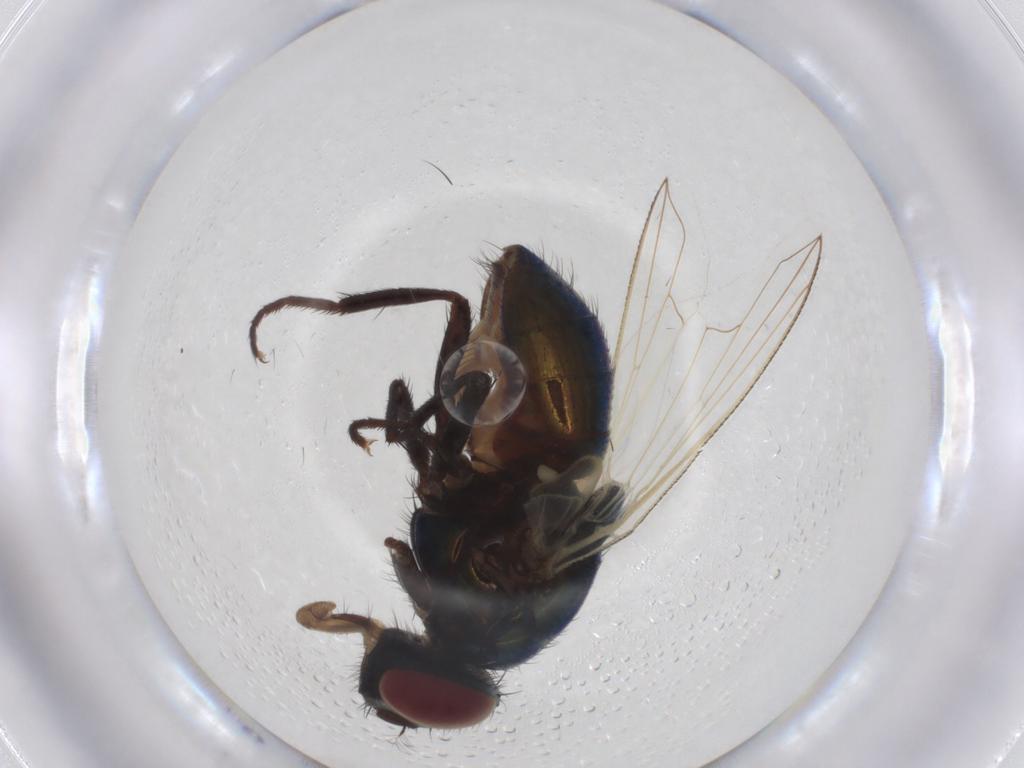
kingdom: Animalia
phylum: Arthropoda
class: Insecta
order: Diptera
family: Muscidae
